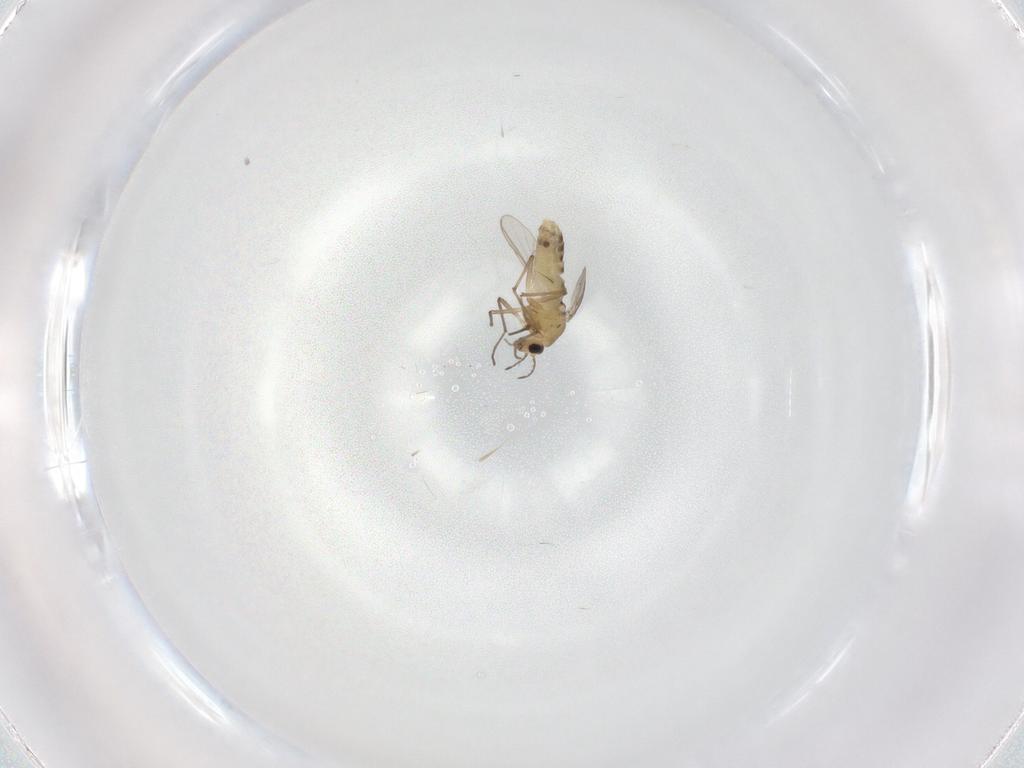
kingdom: Animalia
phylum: Arthropoda
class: Insecta
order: Diptera
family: Chironomidae
